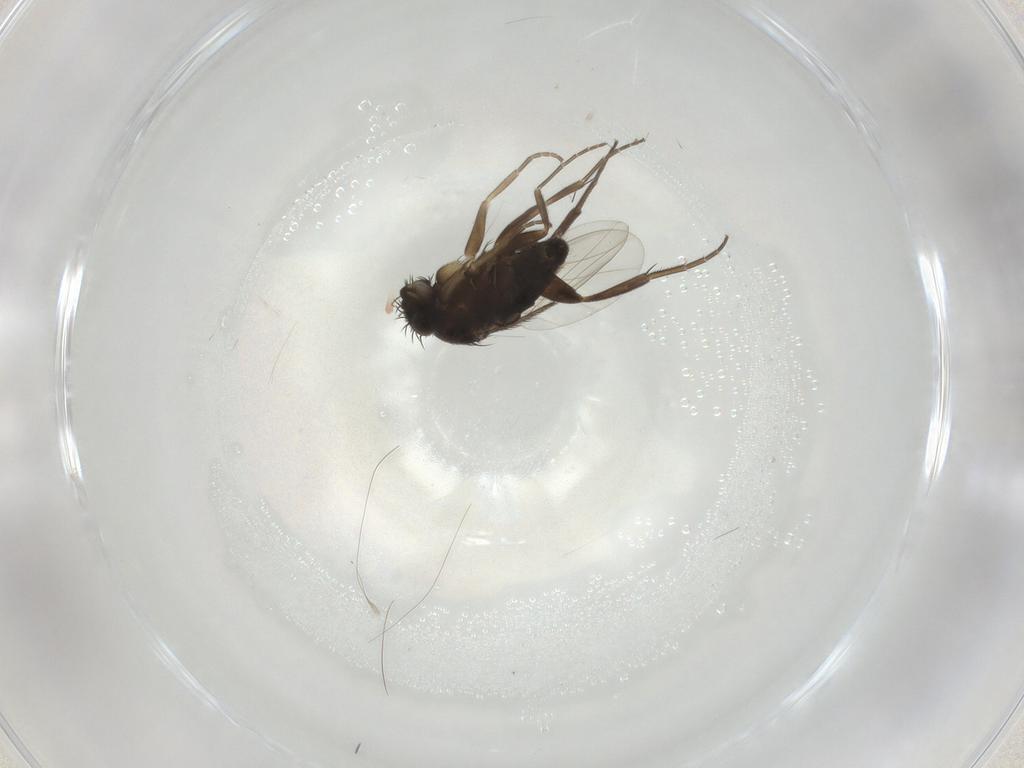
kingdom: Animalia
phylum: Arthropoda
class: Insecta
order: Diptera
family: Phoridae
